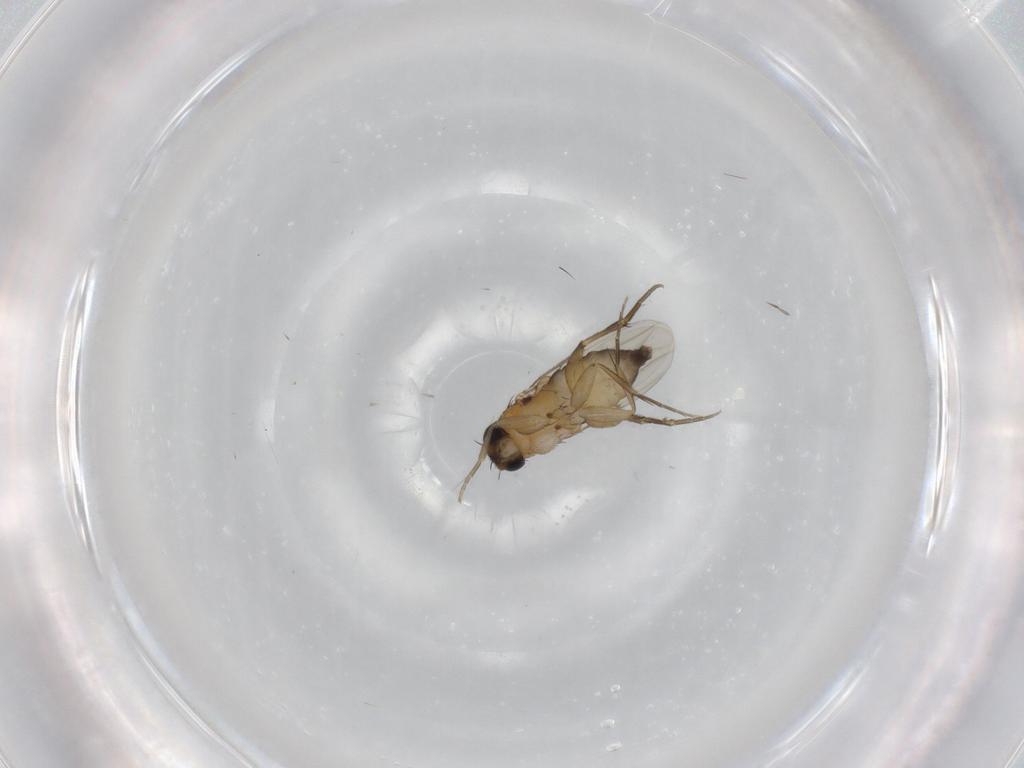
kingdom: Animalia
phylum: Arthropoda
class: Insecta
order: Diptera
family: Phoridae
